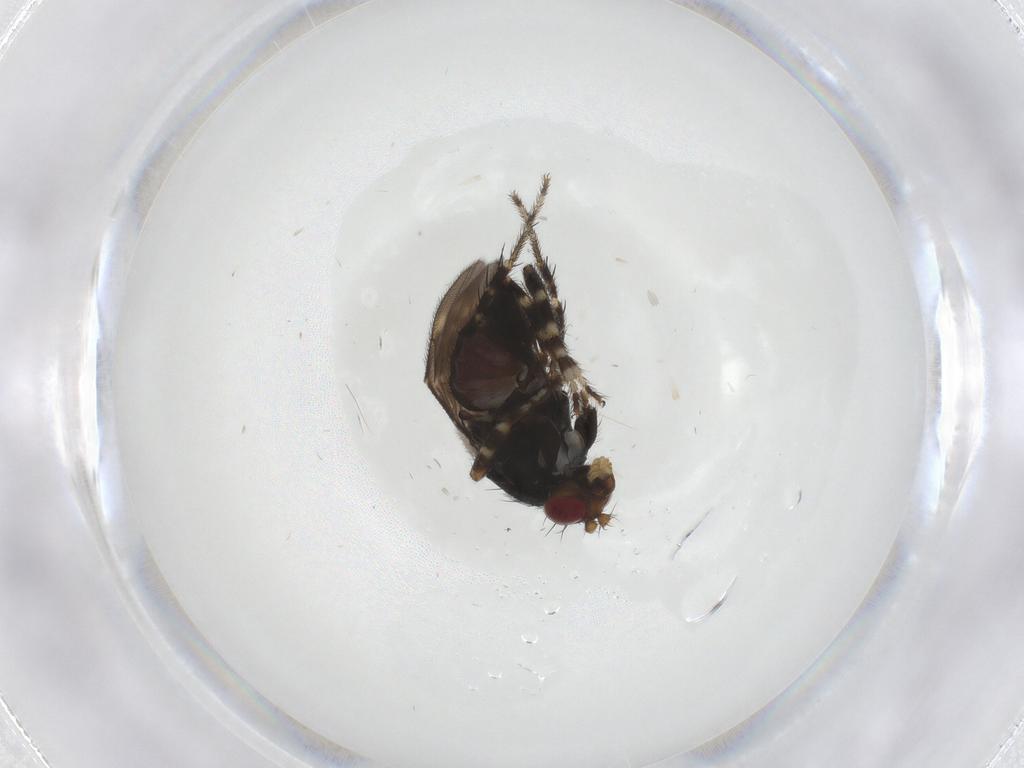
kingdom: Animalia
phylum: Arthropoda
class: Insecta
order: Diptera
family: Sphaeroceridae
